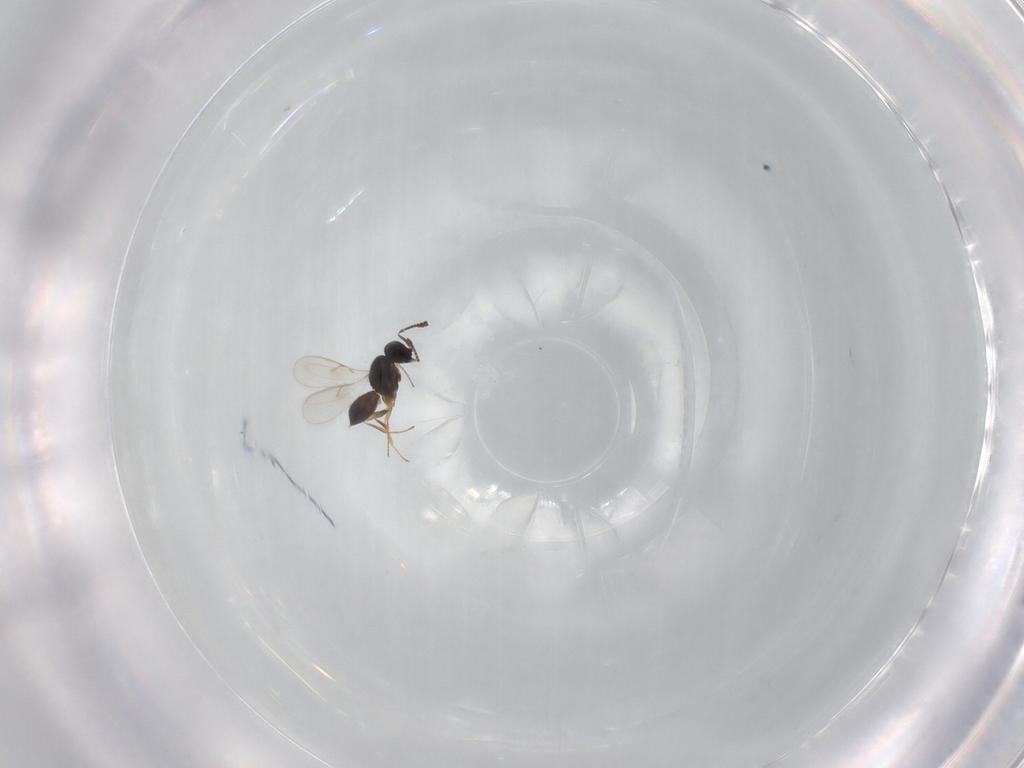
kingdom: Animalia
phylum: Arthropoda
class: Insecta
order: Hymenoptera
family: Scelionidae
